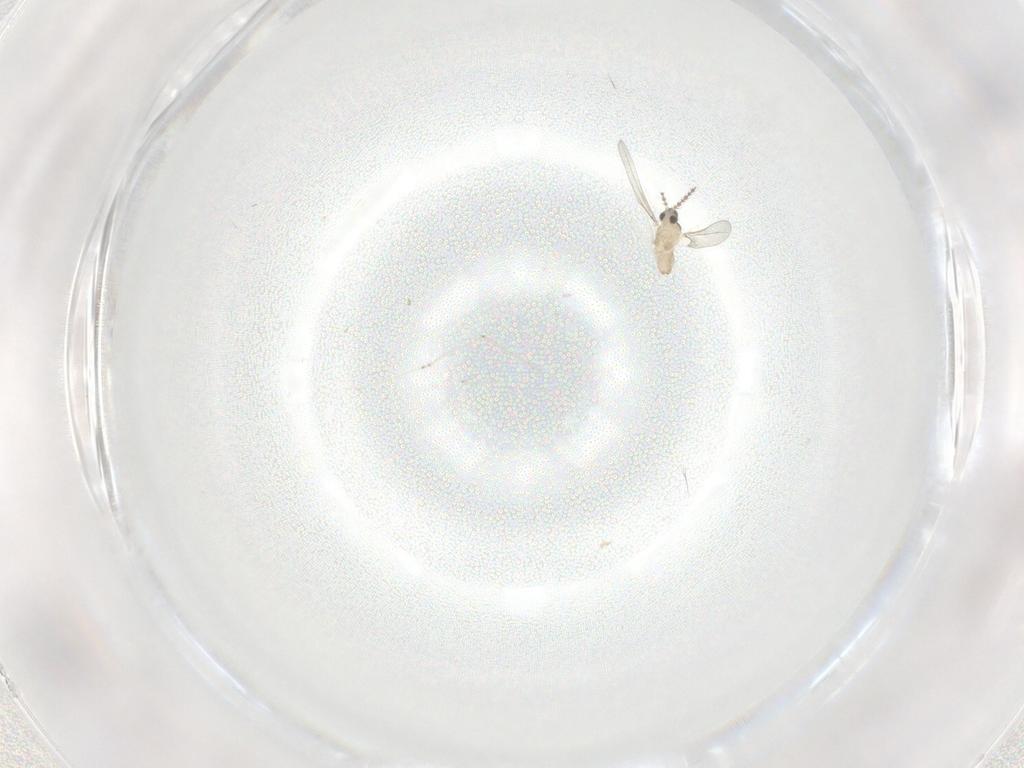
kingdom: Animalia
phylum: Arthropoda
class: Insecta
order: Diptera
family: Cecidomyiidae
